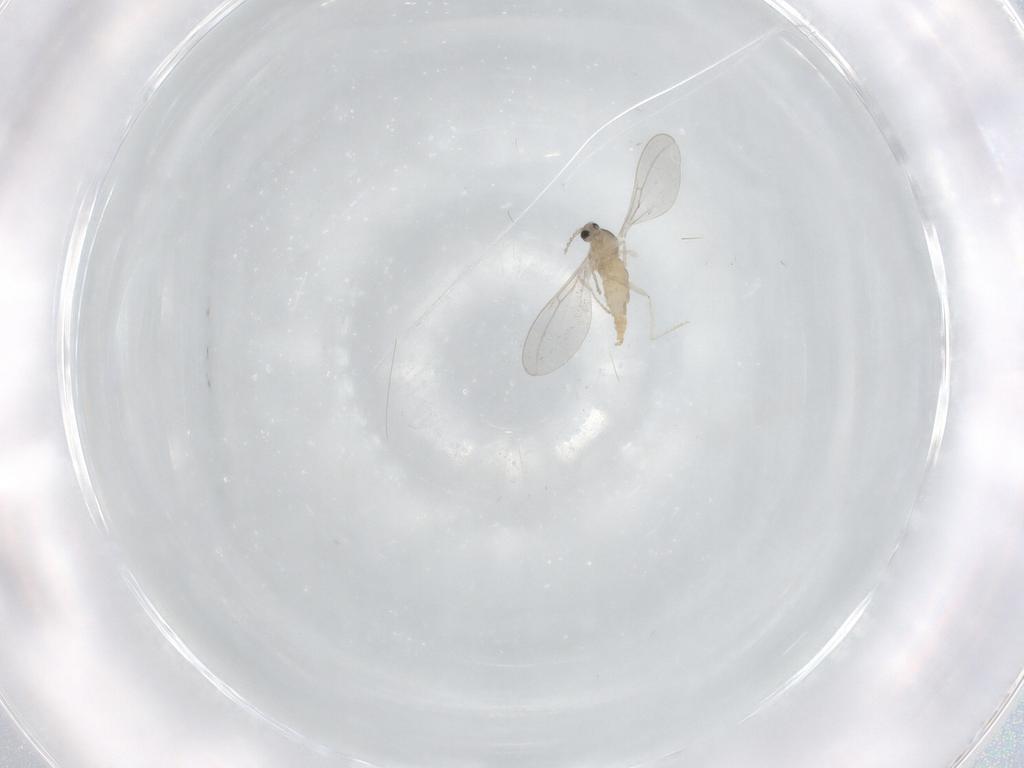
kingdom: Animalia
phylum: Arthropoda
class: Insecta
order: Diptera
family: Cecidomyiidae
